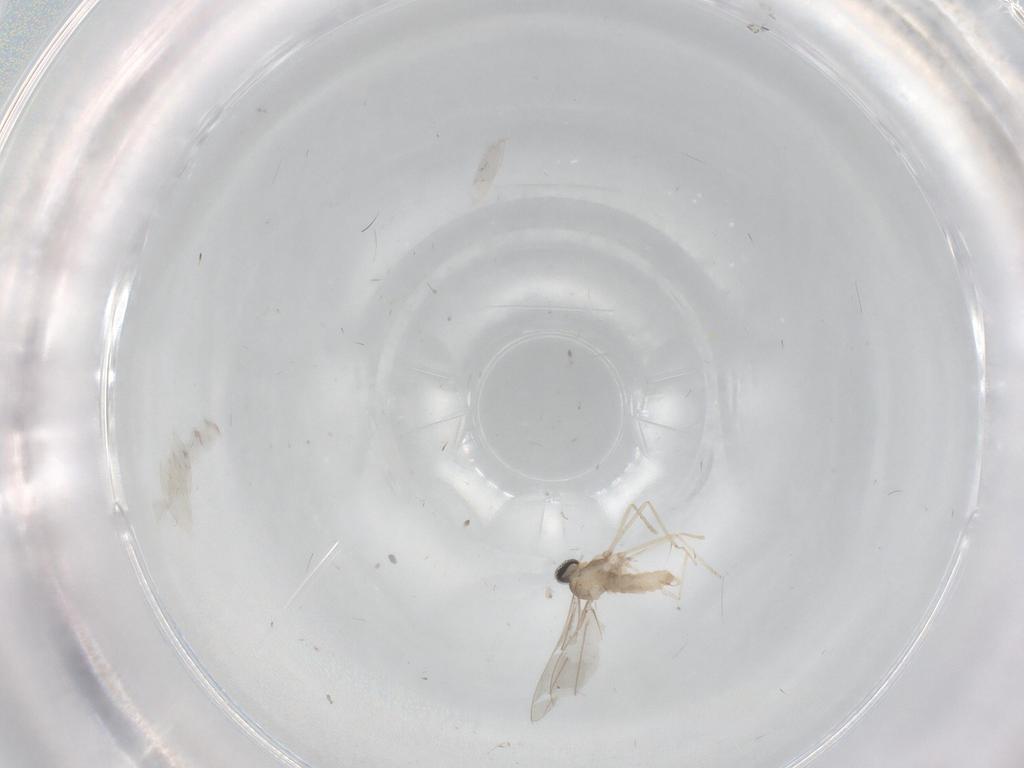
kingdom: Animalia
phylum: Arthropoda
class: Insecta
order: Diptera
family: Cecidomyiidae
